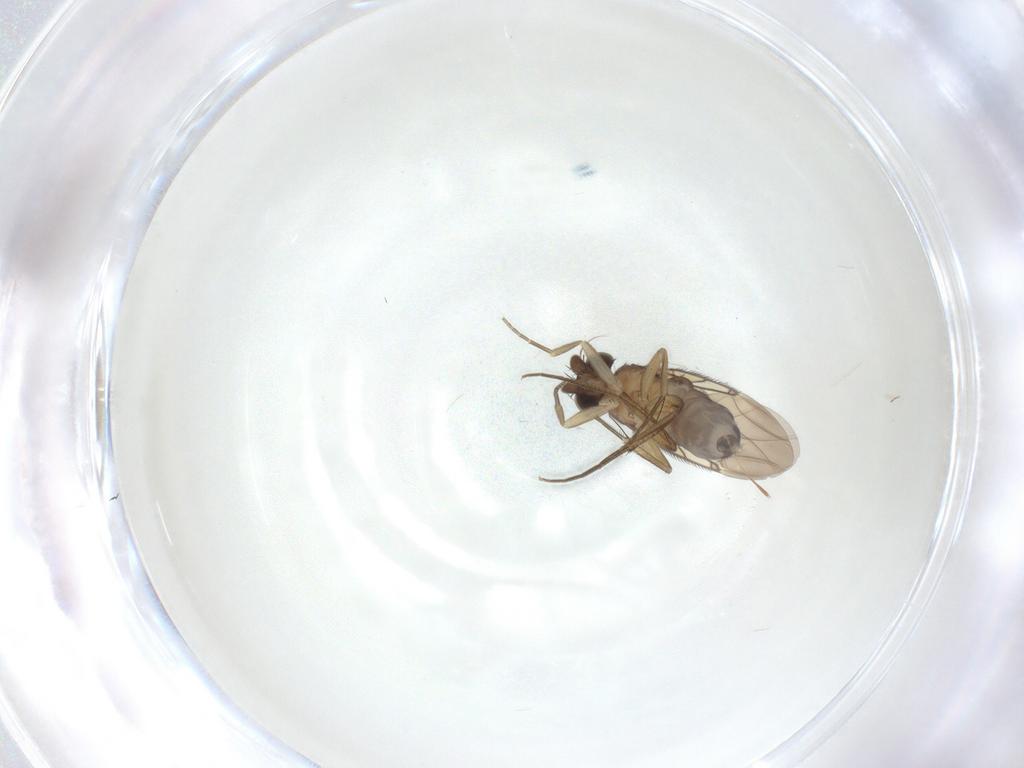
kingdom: Animalia
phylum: Arthropoda
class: Insecta
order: Diptera
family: Phoridae
